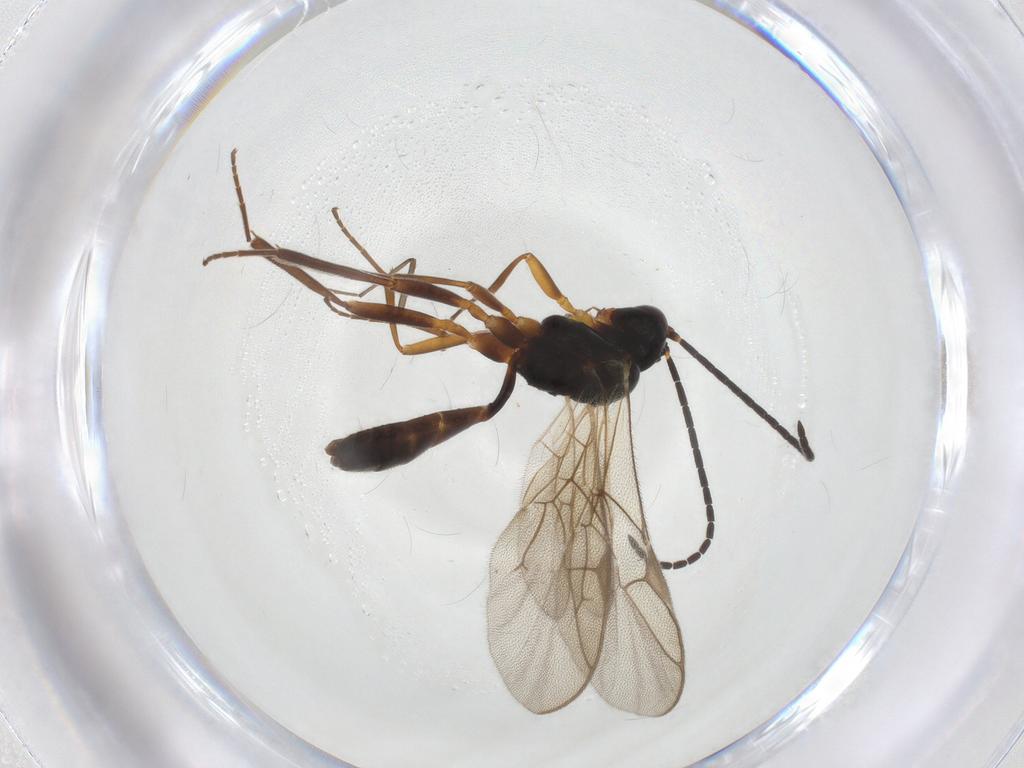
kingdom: Animalia
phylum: Arthropoda
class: Insecta
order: Hymenoptera
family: Ichneumonidae
